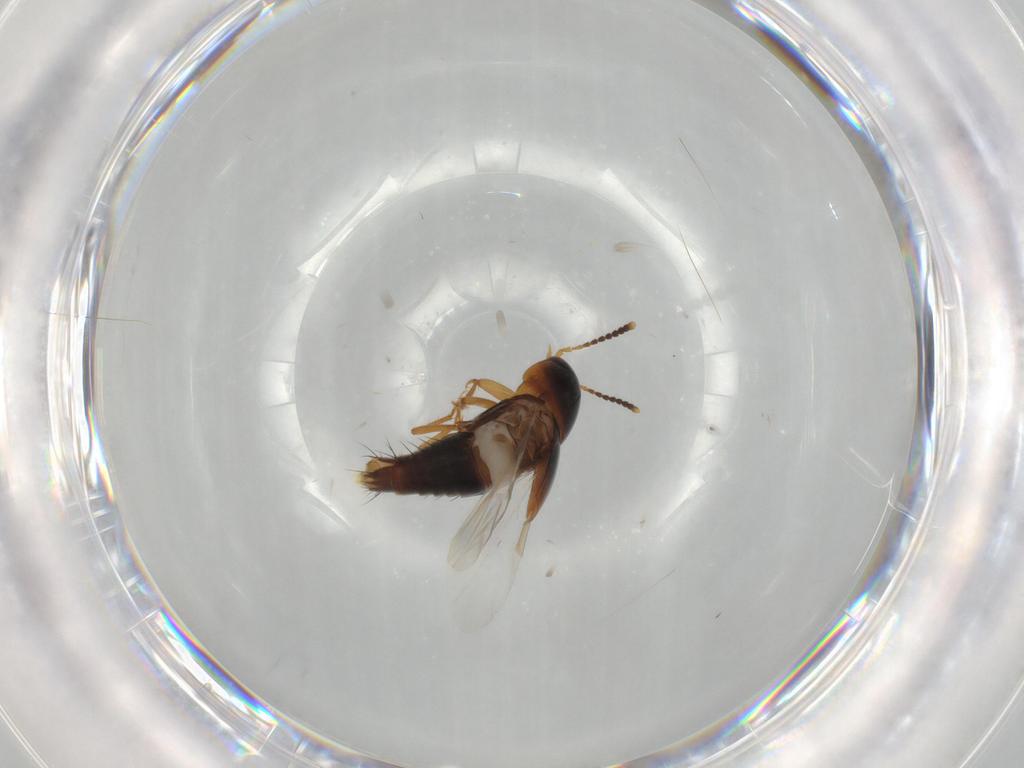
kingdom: Animalia
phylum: Arthropoda
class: Insecta
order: Coleoptera
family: Staphylinidae
